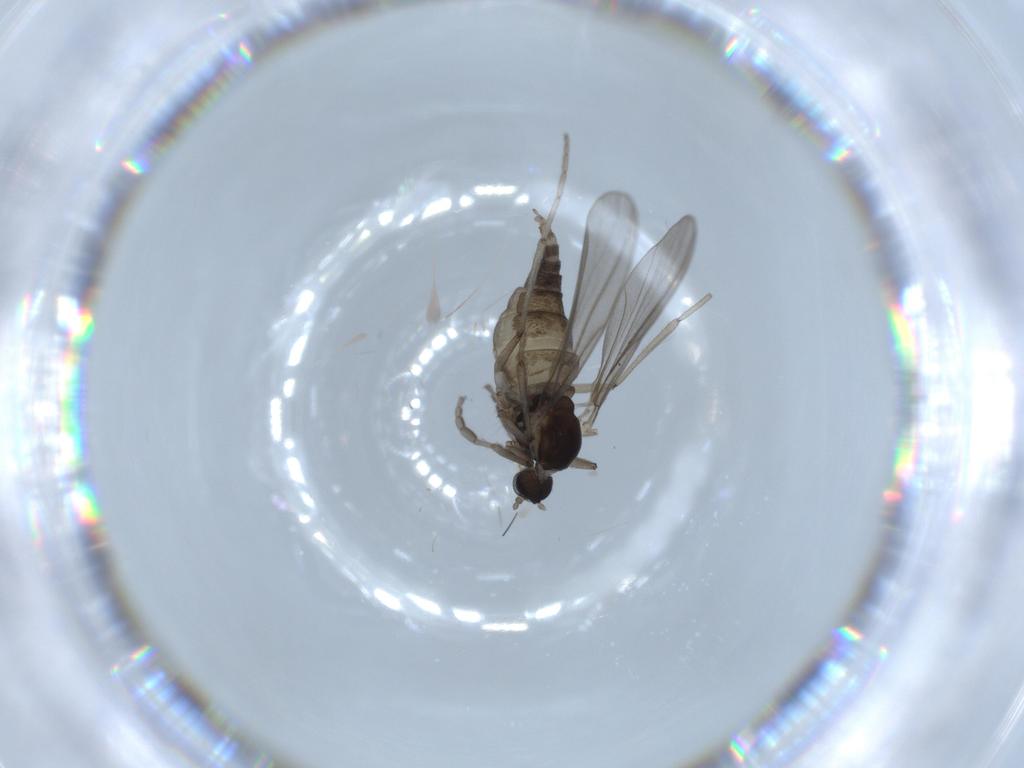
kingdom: Animalia
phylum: Arthropoda
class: Insecta
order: Diptera
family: Cecidomyiidae
